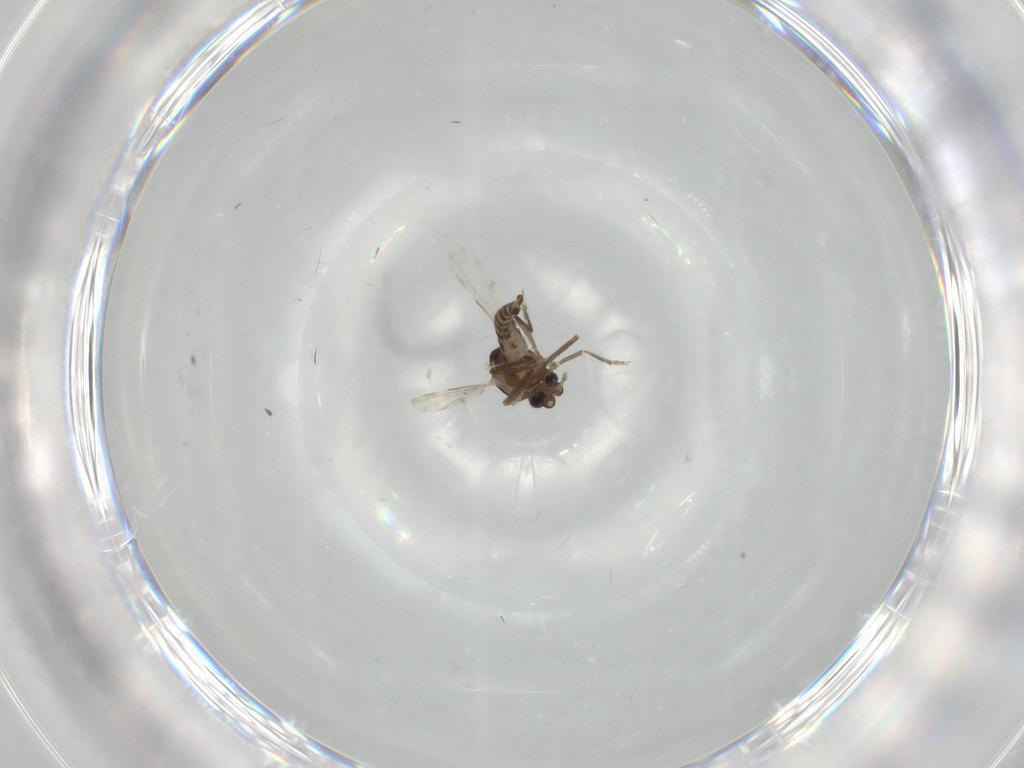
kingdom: Animalia
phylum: Arthropoda
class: Insecta
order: Diptera
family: Ceratopogonidae
